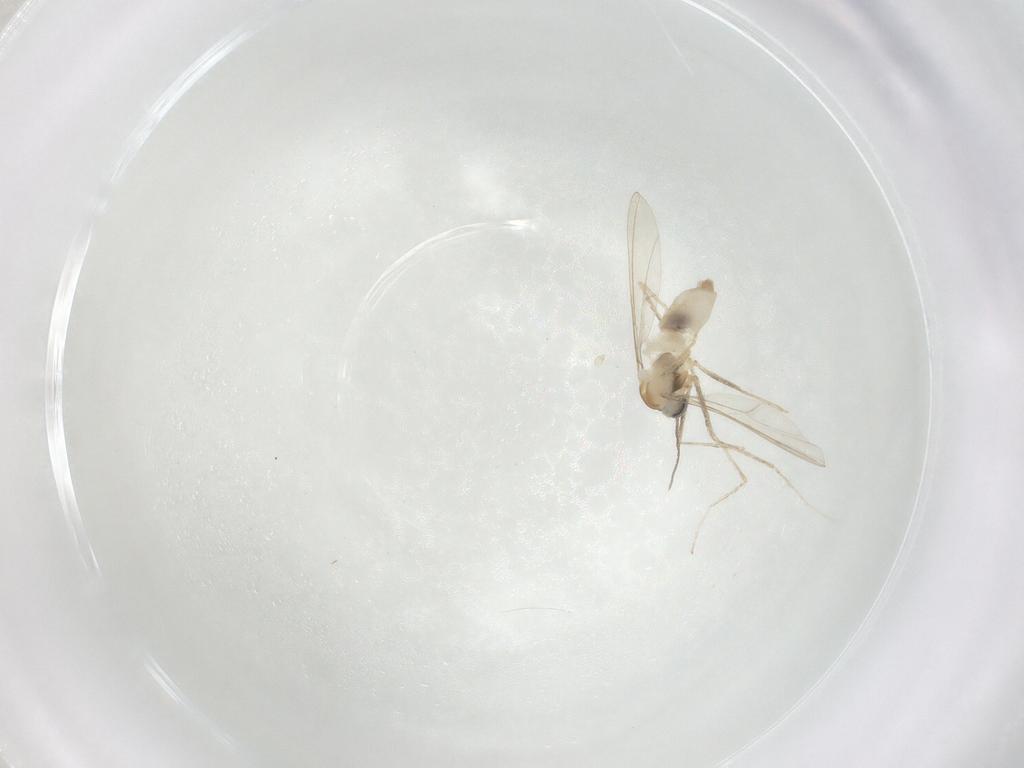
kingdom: Animalia
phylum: Arthropoda
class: Insecta
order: Diptera
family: Cecidomyiidae
